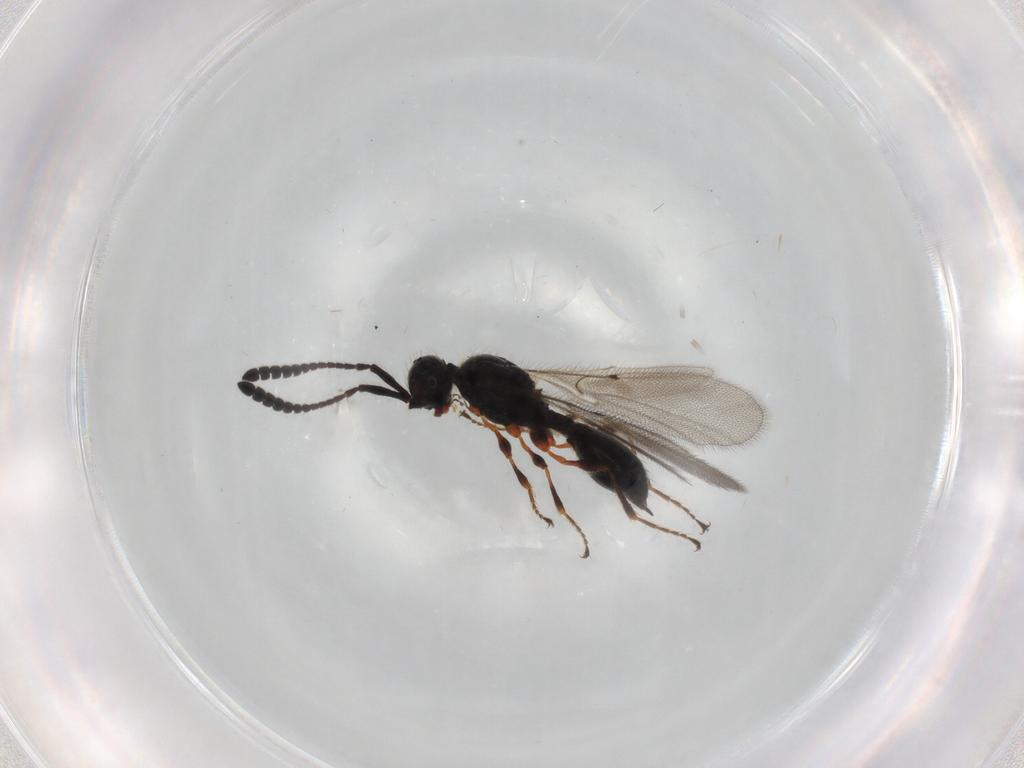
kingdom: Animalia
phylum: Arthropoda
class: Insecta
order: Hymenoptera
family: Diapriidae
